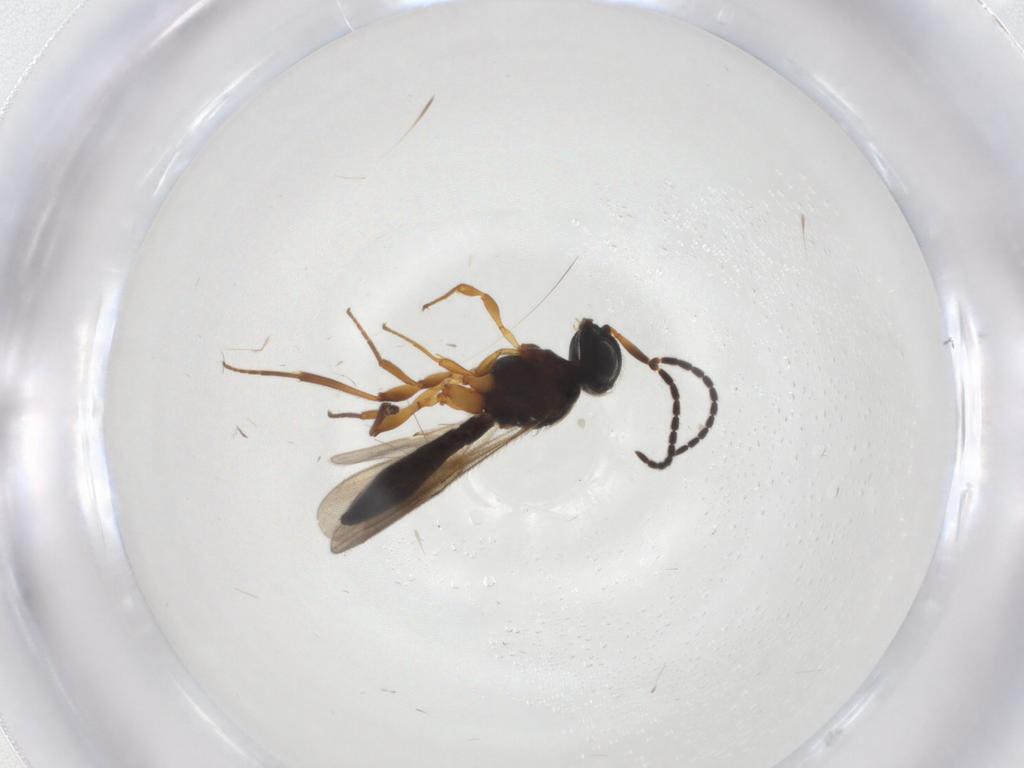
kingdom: Animalia
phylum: Arthropoda
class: Insecta
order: Hymenoptera
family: Scelionidae
